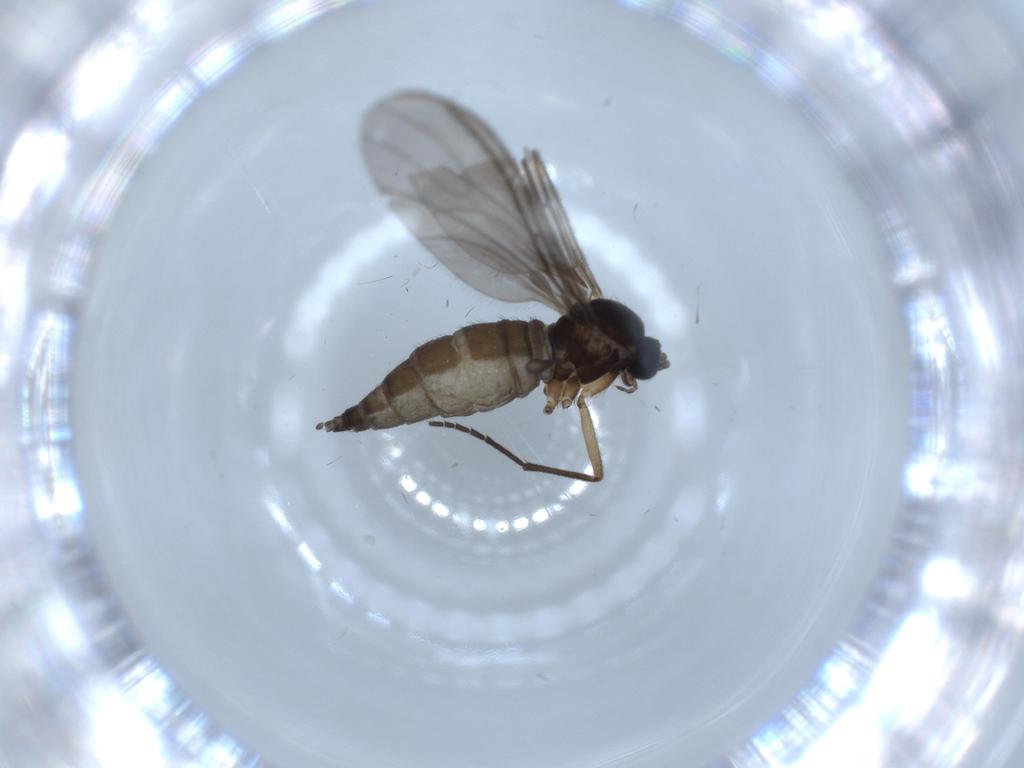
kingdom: Animalia
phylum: Arthropoda
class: Insecta
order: Diptera
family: Sciaridae
